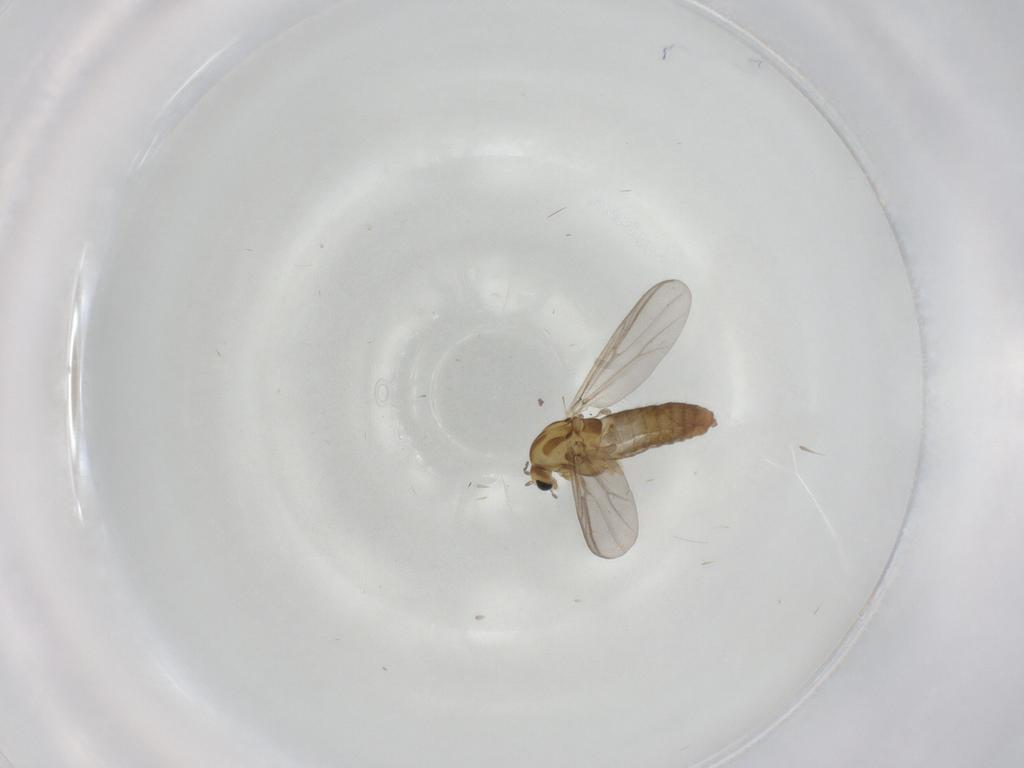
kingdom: Animalia
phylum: Arthropoda
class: Insecta
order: Diptera
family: Chironomidae
